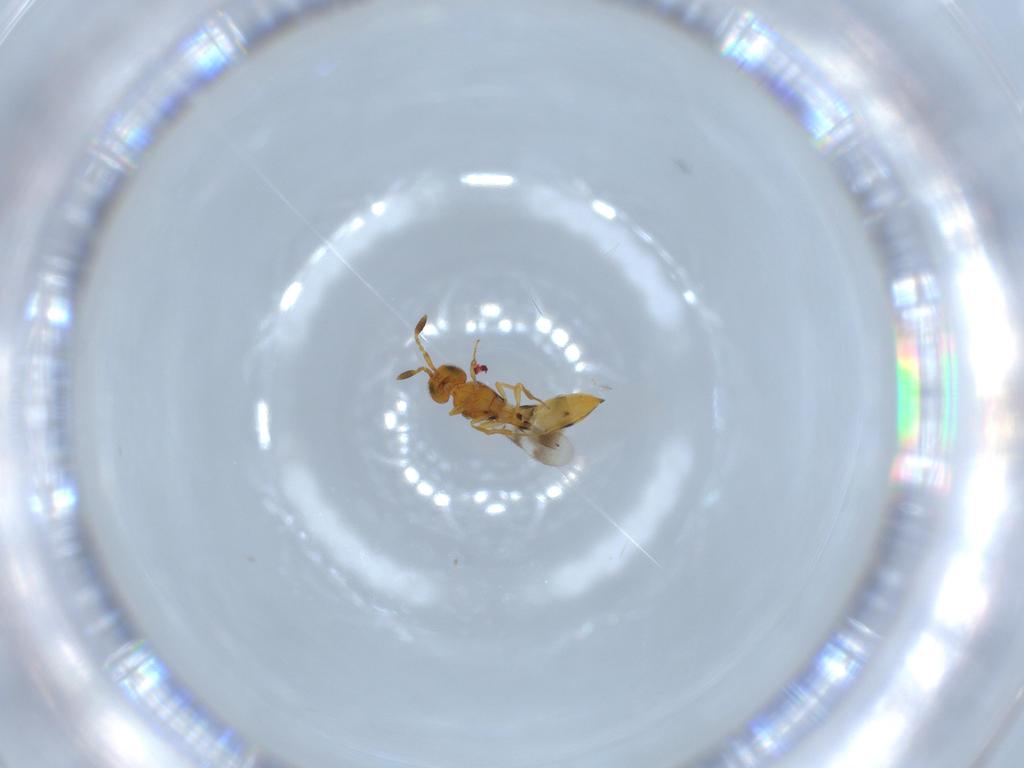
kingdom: Animalia
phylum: Arthropoda
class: Insecta
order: Hymenoptera
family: Scelionidae
